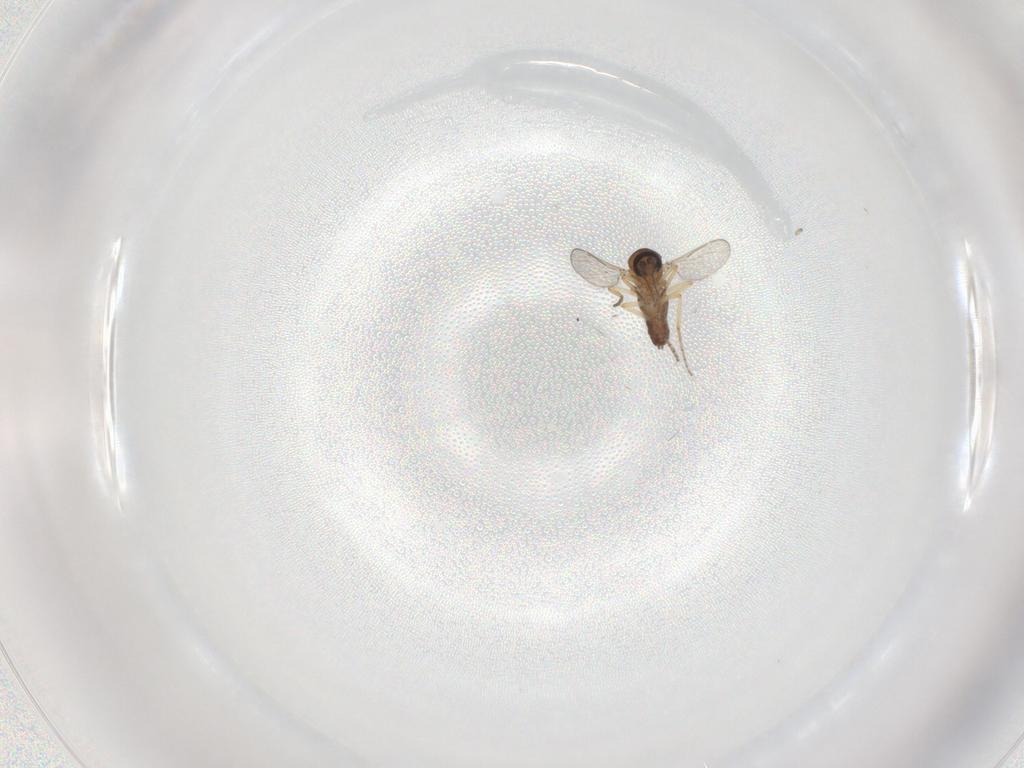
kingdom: Animalia
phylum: Arthropoda
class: Insecta
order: Diptera
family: Ceratopogonidae
